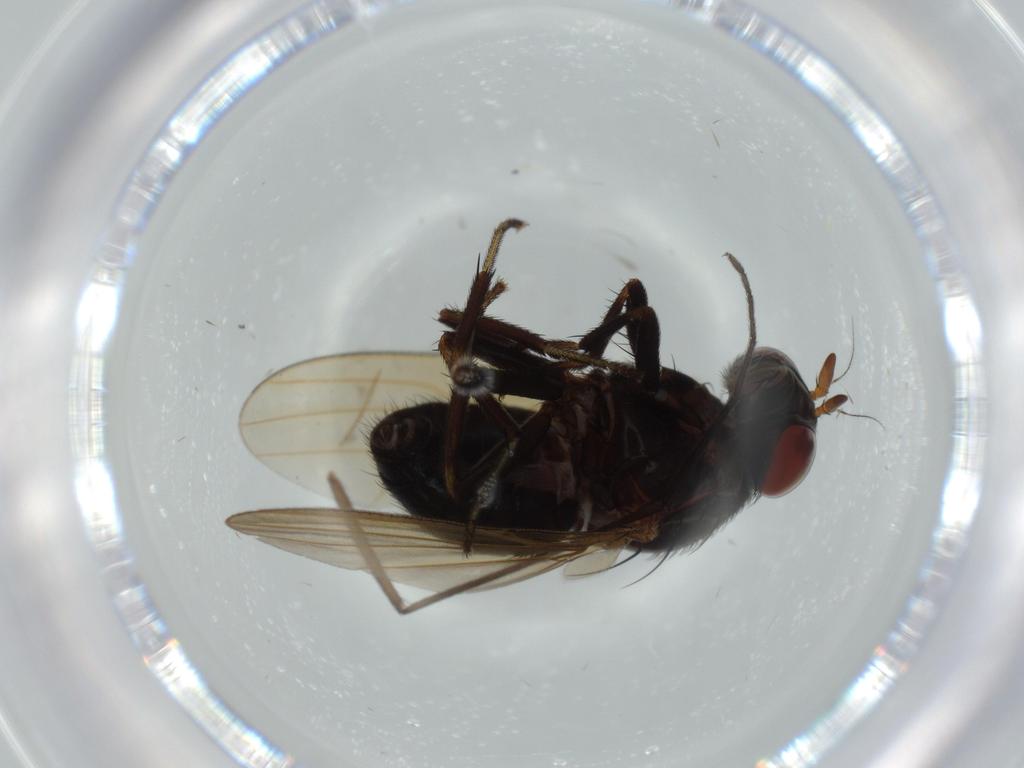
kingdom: Animalia
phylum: Arthropoda
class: Insecta
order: Diptera
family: Lauxaniidae
